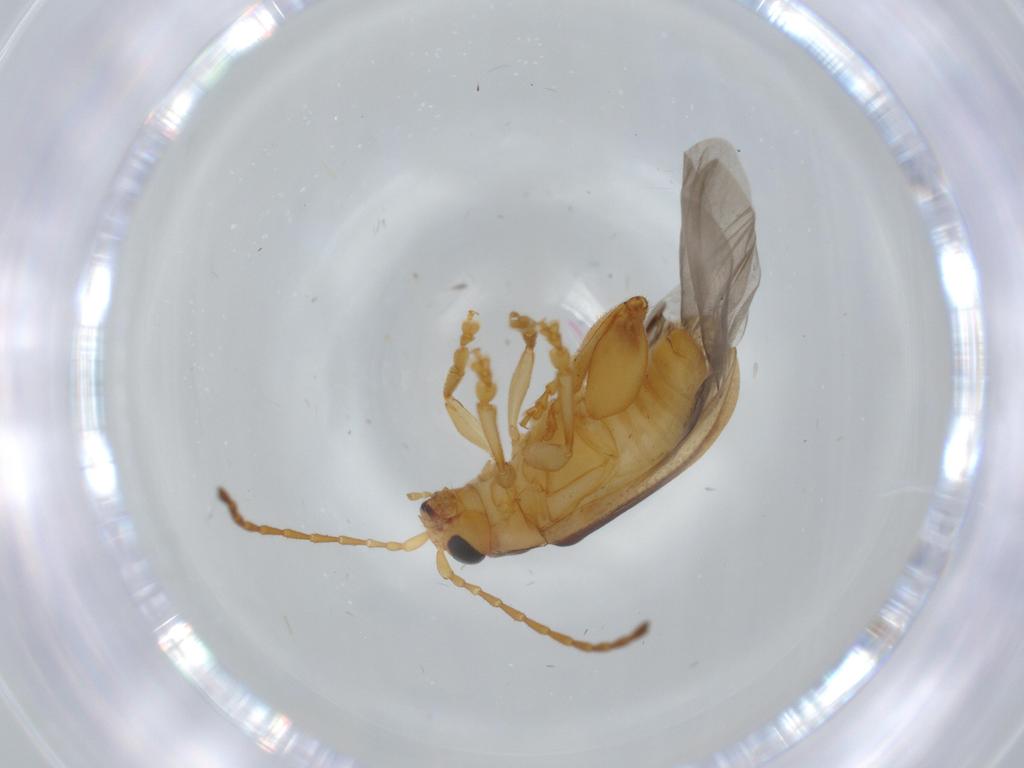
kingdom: Animalia
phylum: Arthropoda
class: Insecta
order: Coleoptera
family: Chrysomelidae
